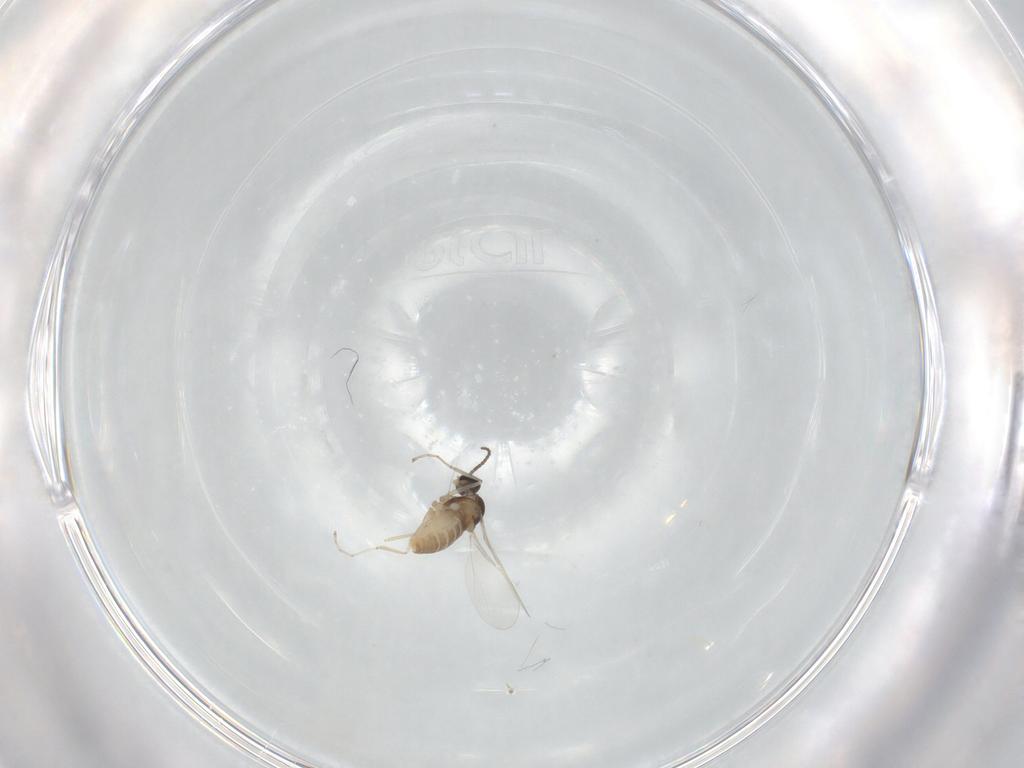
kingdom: Animalia
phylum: Arthropoda
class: Insecta
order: Diptera
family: Cecidomyiidae
